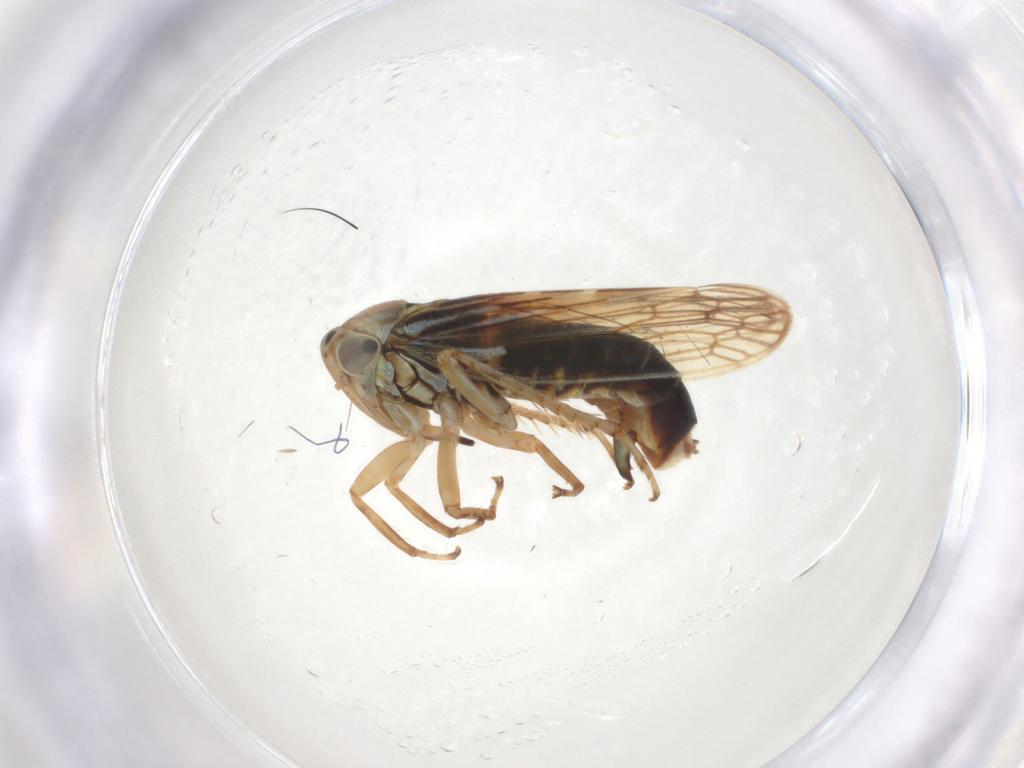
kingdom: Animalia
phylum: Arthropoda
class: Insecta
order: Hemiptera
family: Cicadellidae
